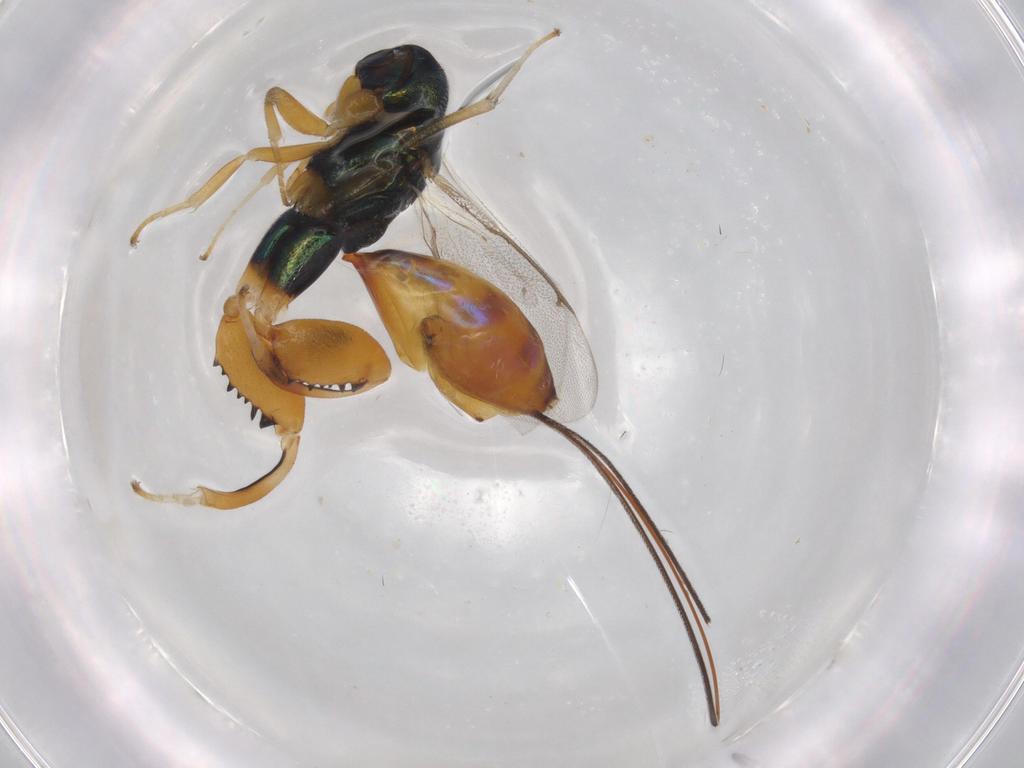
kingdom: Animalia
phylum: Arthropoda
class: Insecta
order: Hymenoptera
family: Torymidae
